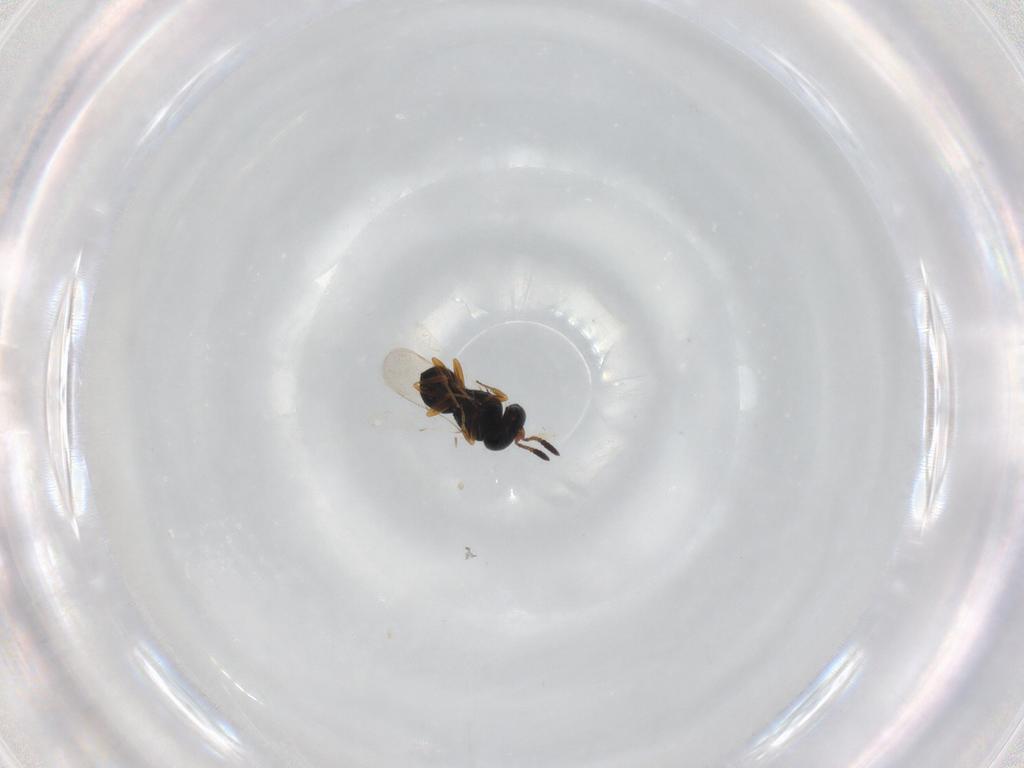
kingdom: Animalia
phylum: Arthropoda
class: Insecta
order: Hymenoptera
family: Scelionidae
